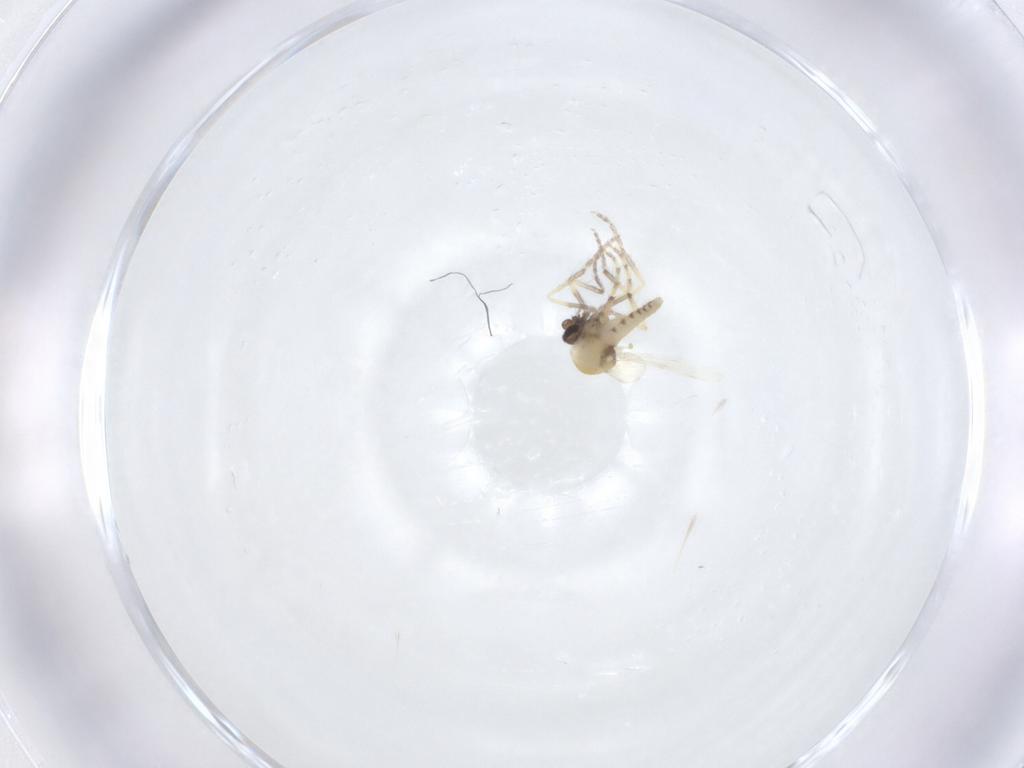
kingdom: Animalia
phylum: Arthropoda
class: Insecta
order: Diptera
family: Ceratopogonidae
